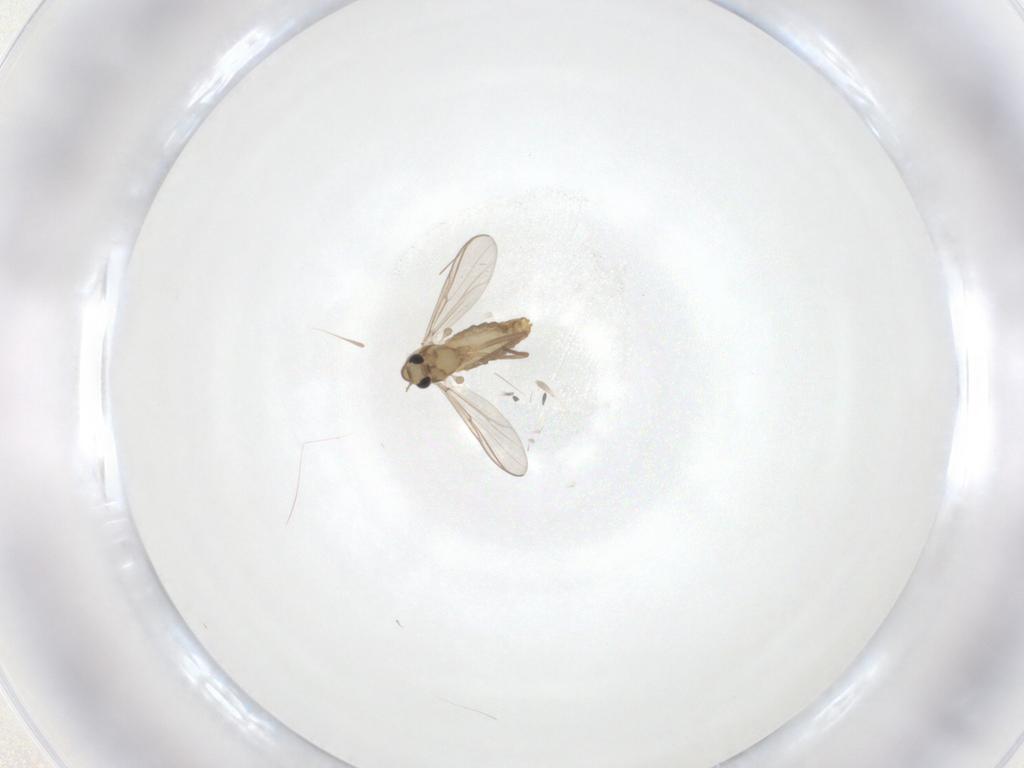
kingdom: Animalia
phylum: Arthropoda
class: Insecta
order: Diptera
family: Chironomidae
